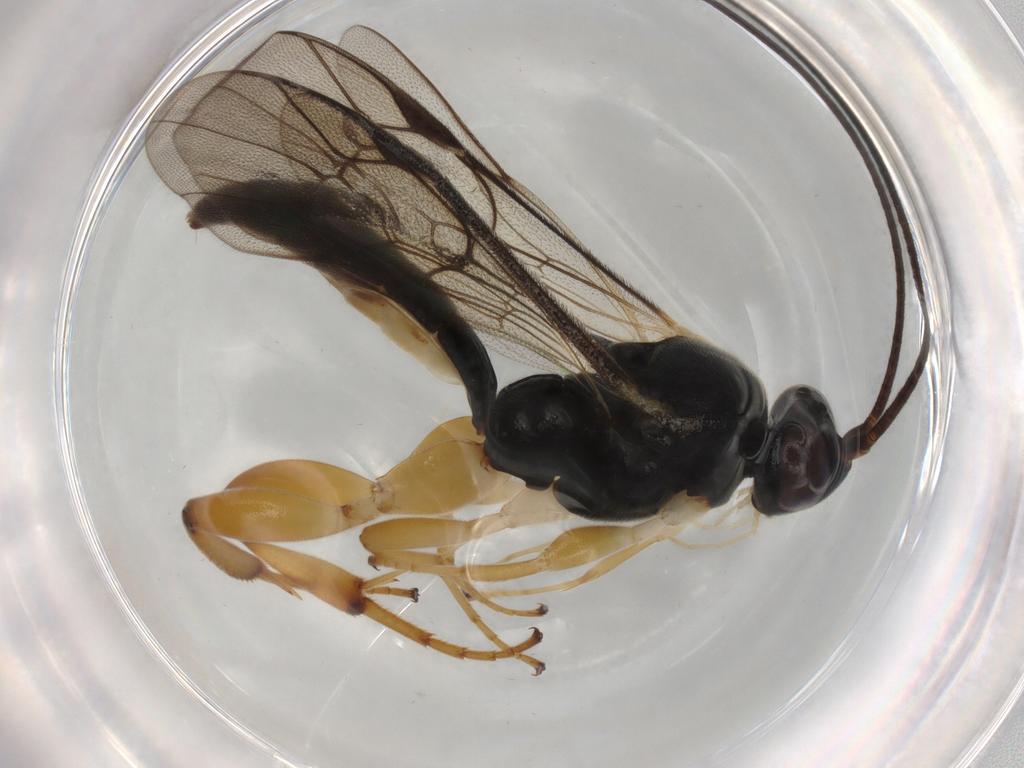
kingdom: Animalia
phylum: Arthropoda
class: Insecta
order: Hymenoptera
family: Ichneumonidae
